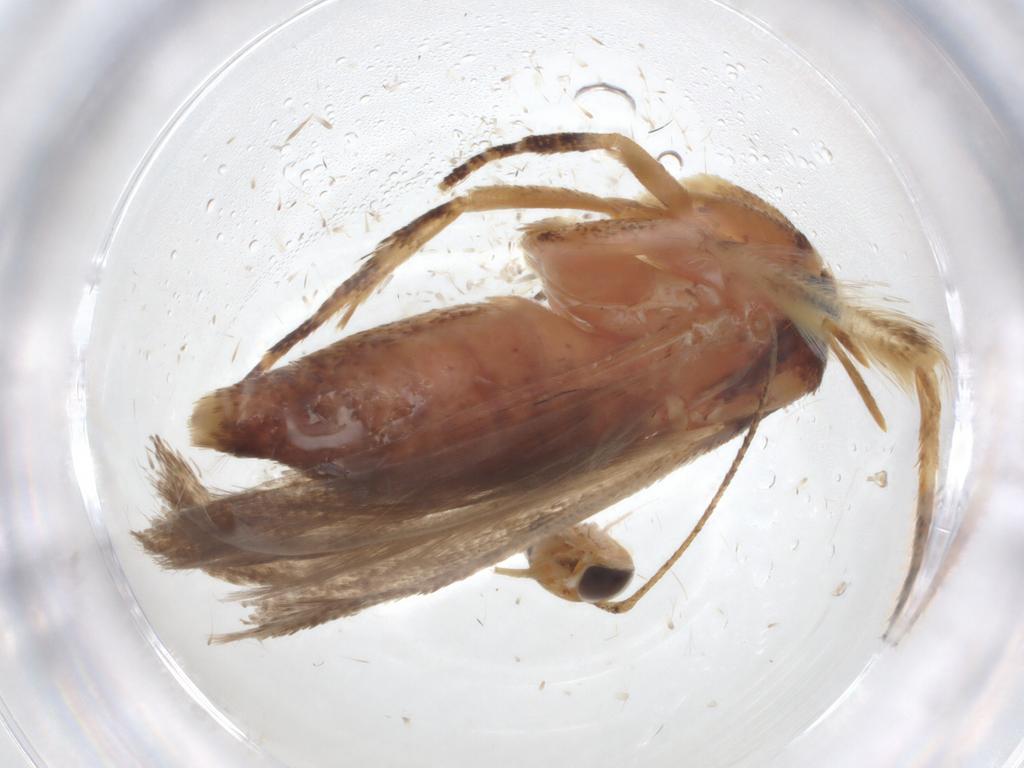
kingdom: Animalia
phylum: Arthropoda
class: Insecta
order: Lepidoptera
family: Gelechiidae
